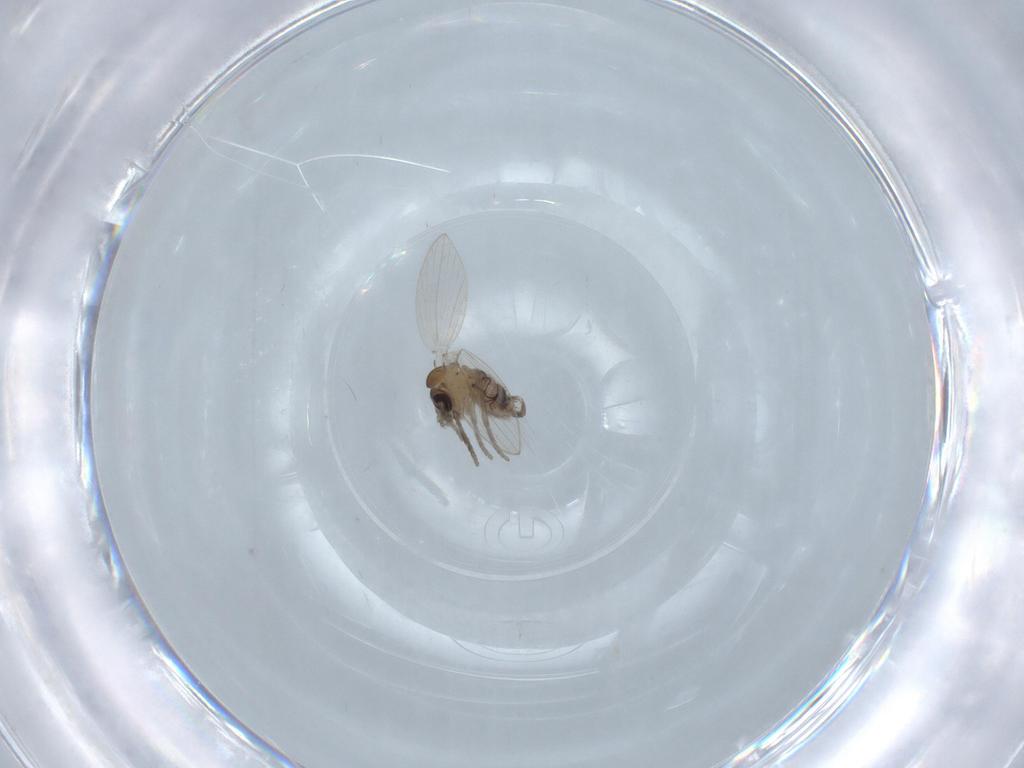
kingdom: Animalia
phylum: Arthropoda
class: Insecta
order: Diptera
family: Psychodidae
